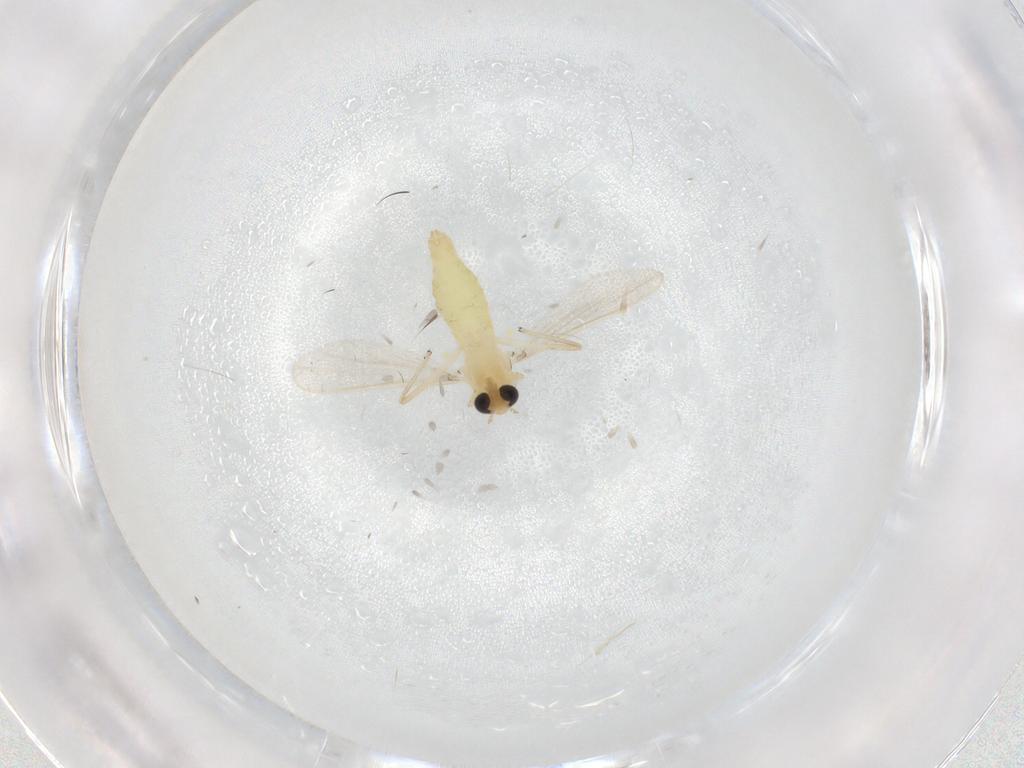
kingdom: Animalia
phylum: Arthropoda
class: Insecta
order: Diptera
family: Chironomidae
